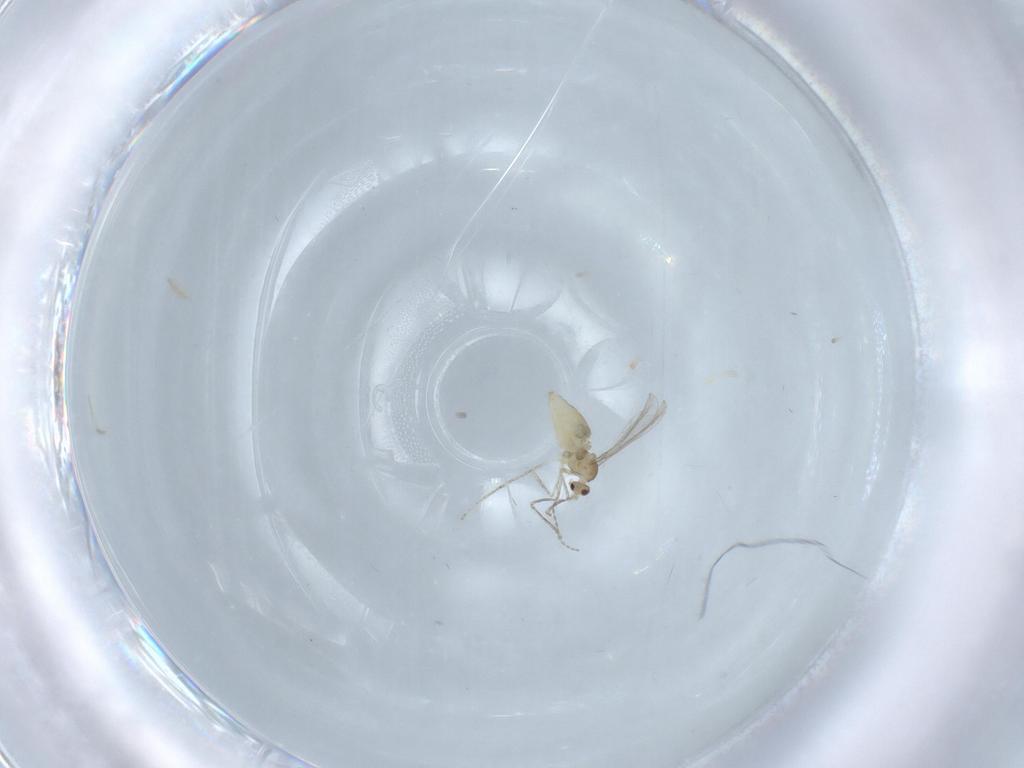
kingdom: Animalia
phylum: Arthropoda
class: Insecta
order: Diptera
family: Cecidomyiidae
